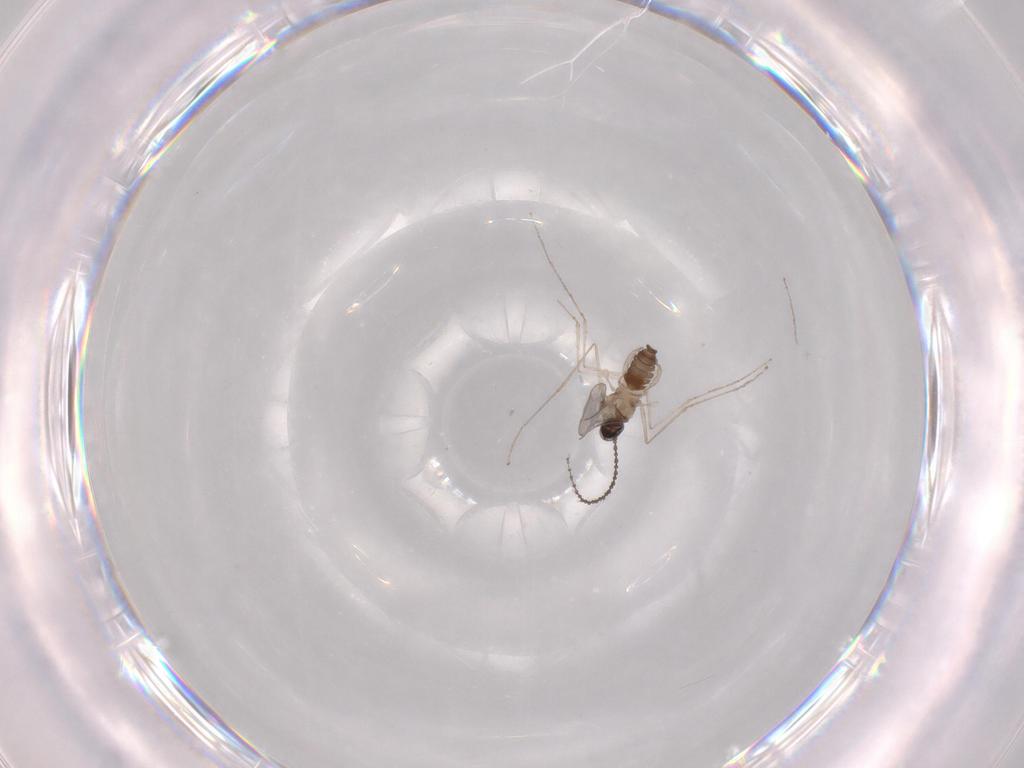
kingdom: Animalia
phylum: Arthropoda
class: Insecta
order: Diptera
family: Cecidomyiidae
